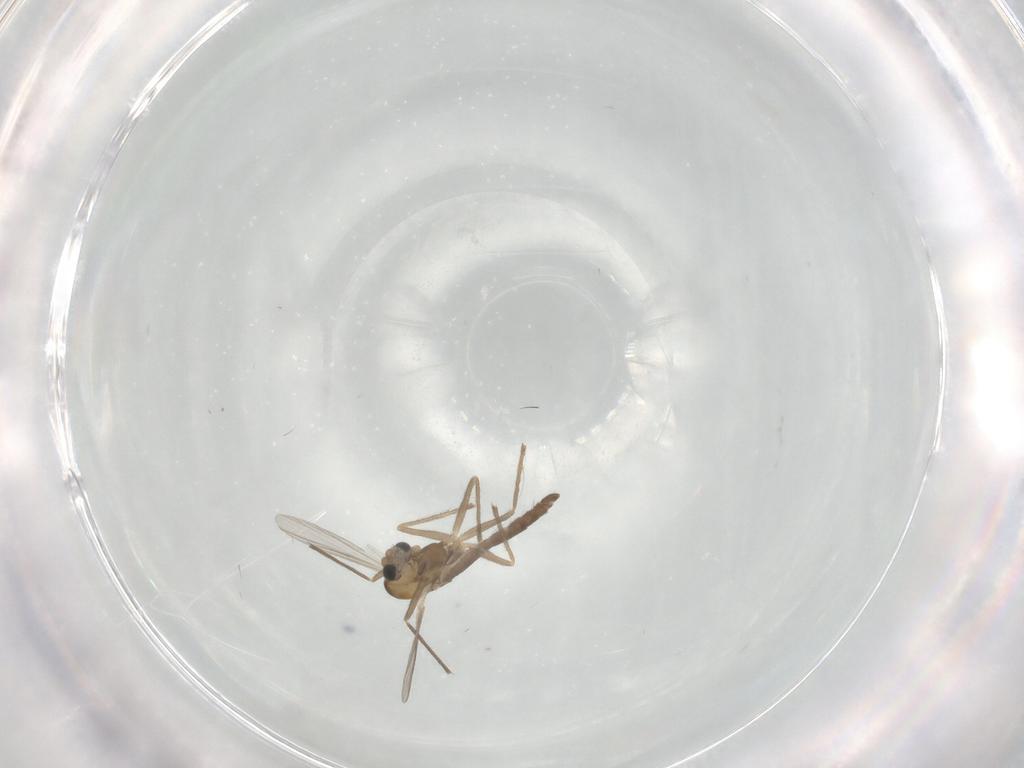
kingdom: Animalia
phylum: Arthropoda
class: Insecta
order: Diptera
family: Chironomidae
